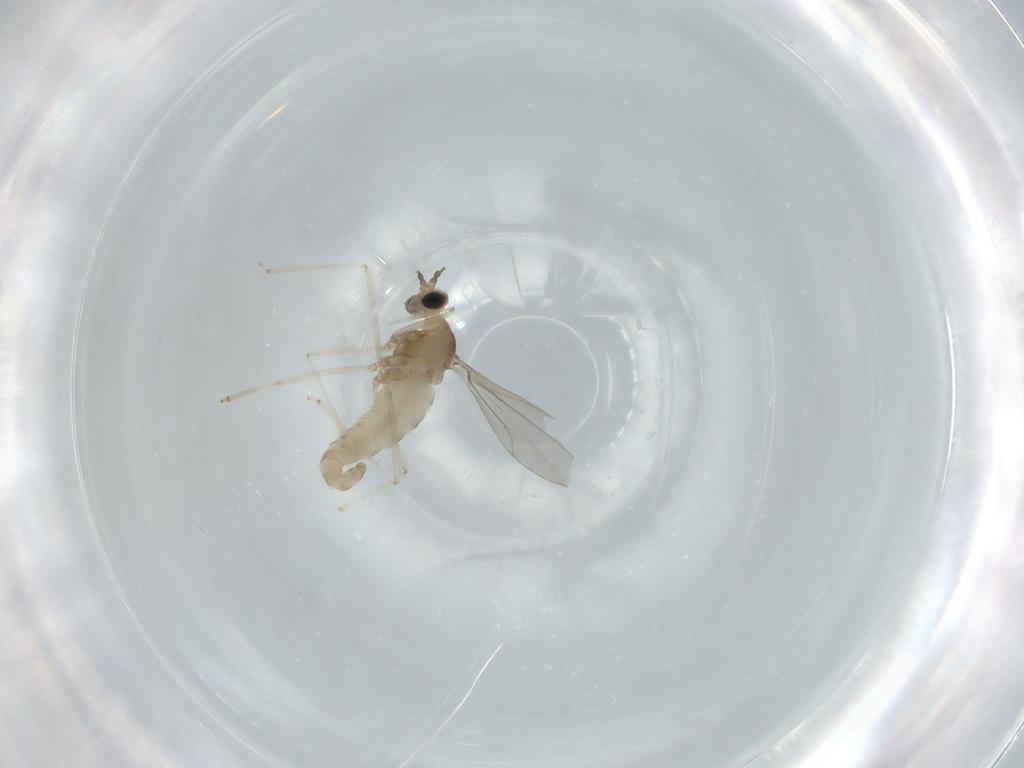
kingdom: Animalia
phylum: Arthropoda
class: Insecta
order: Diptera
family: Cecidomyiidae
